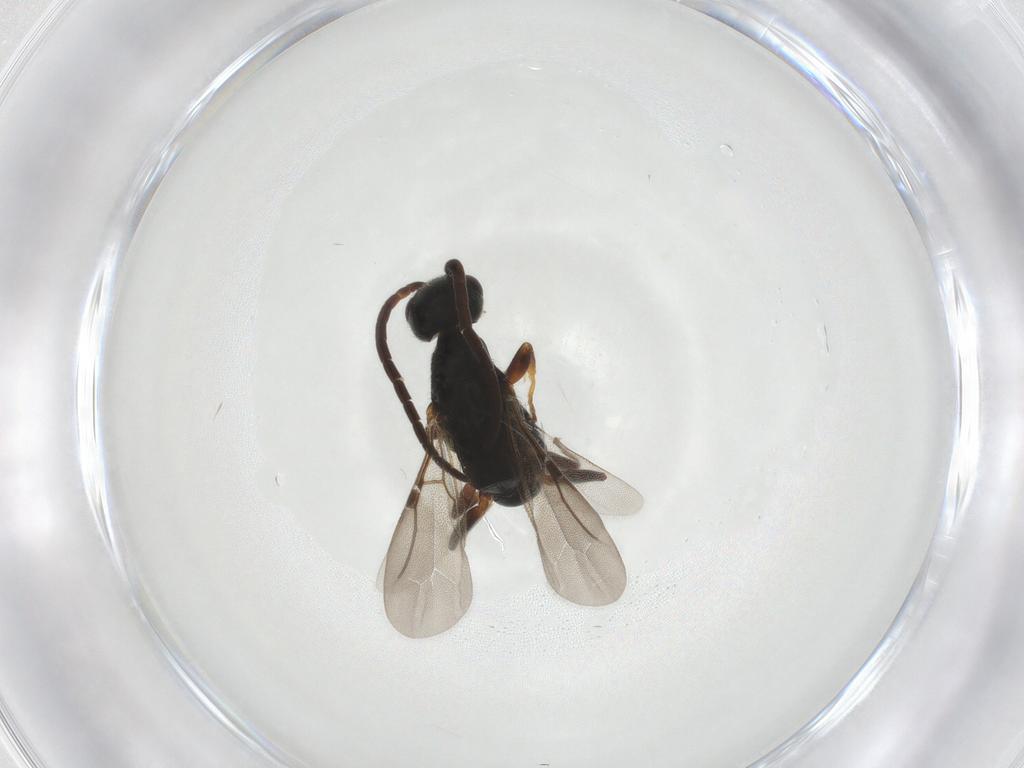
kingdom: Animalia
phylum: Arthropoda
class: Insecta
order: Hymenoptera
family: Bethylidae
